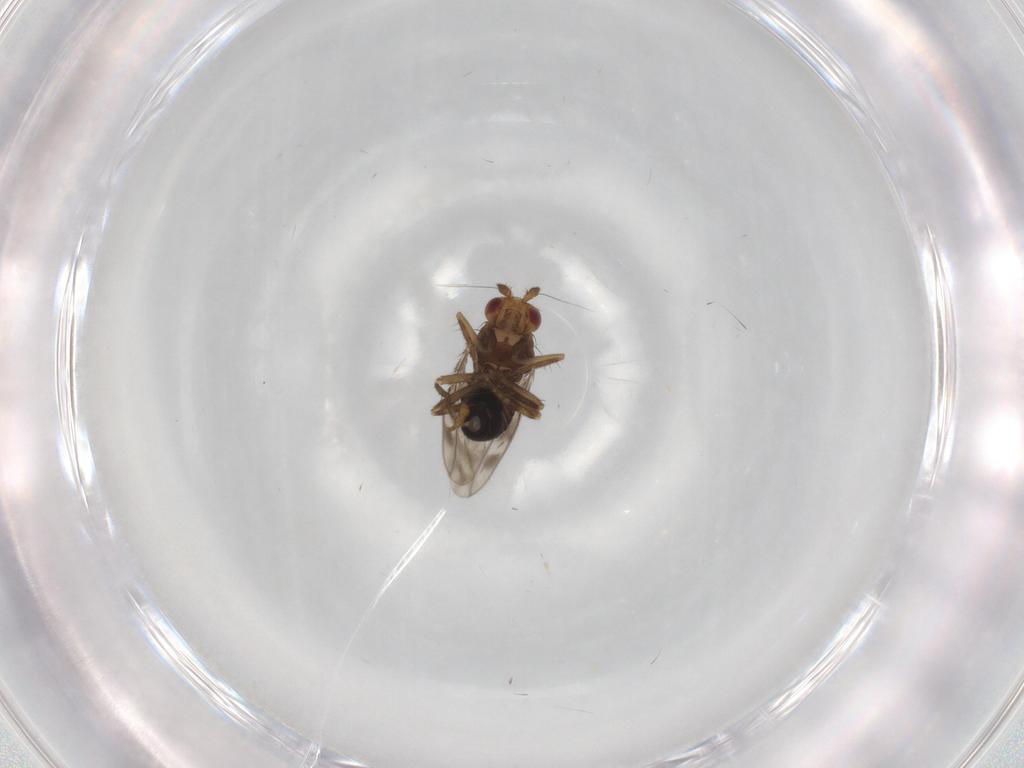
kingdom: Animalia
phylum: Arthropoda
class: Insecta
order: Diptera
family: Sphaeroceridae
